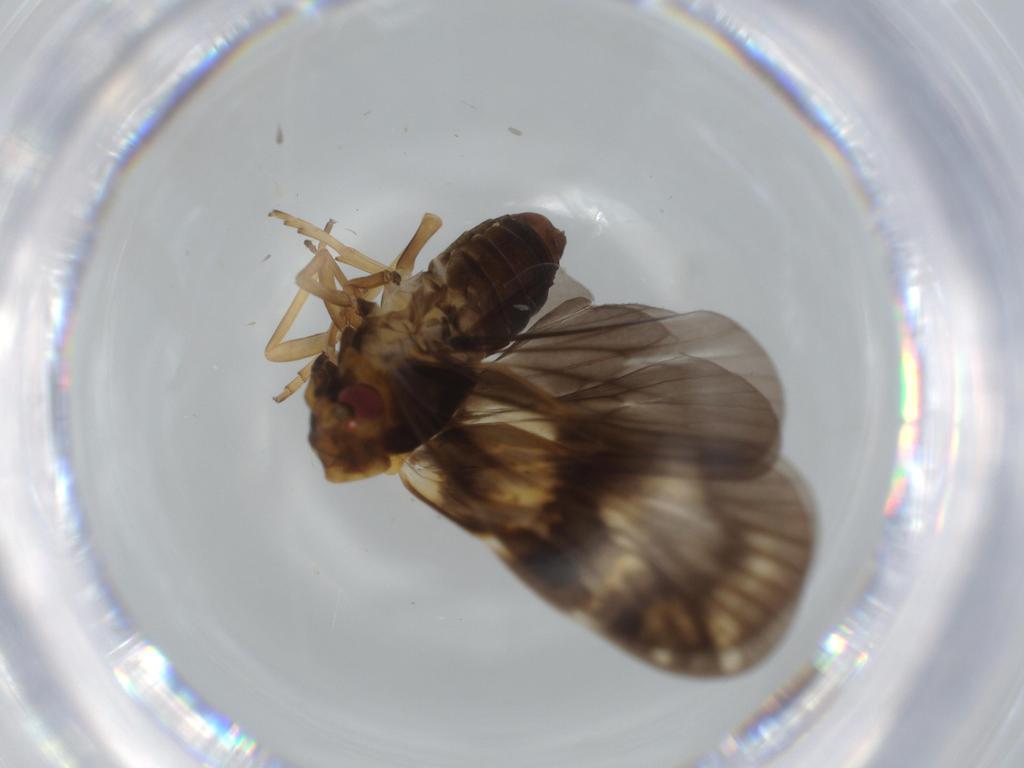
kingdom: Animalia
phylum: Arthropoda
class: Insecta
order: Hemiptera
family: Cixiidae
